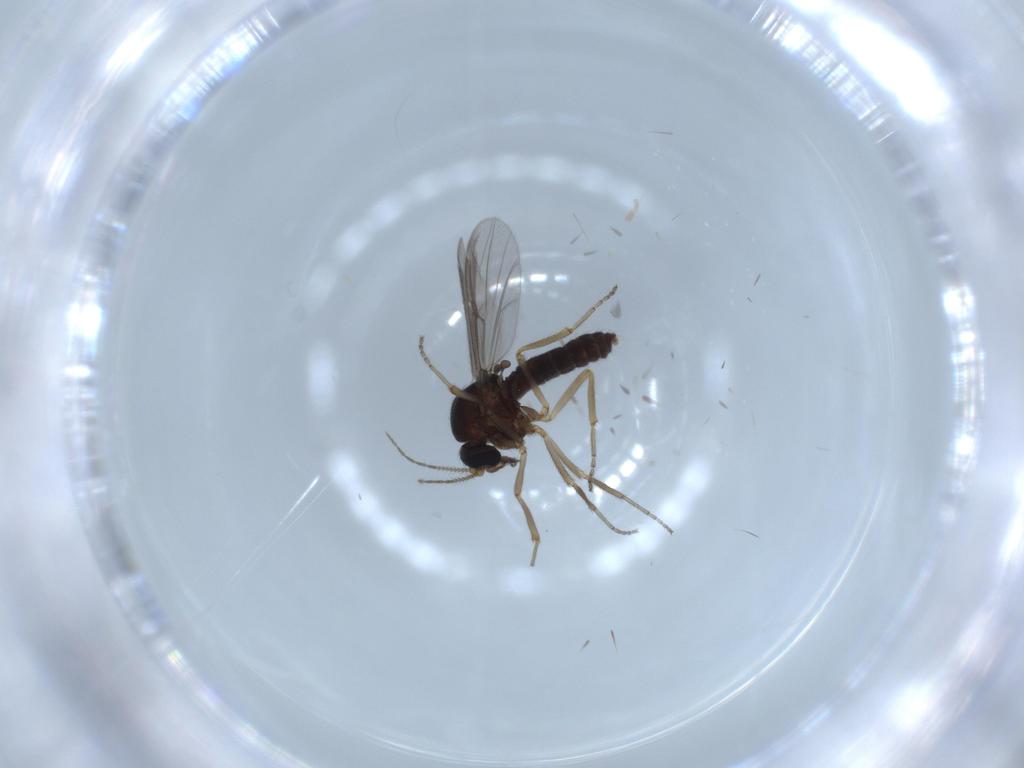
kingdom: Animalia
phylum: Arthropoda
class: Insecta
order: Diptera
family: Ceratopogonidae
